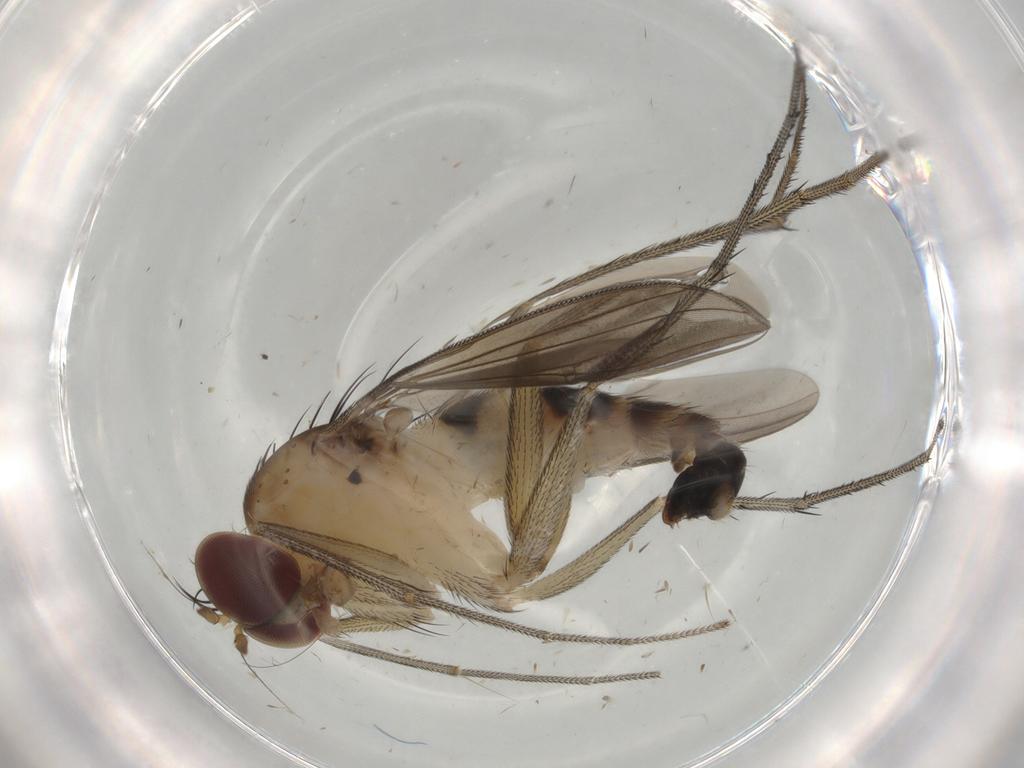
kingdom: Animalia
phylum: Arthropoda
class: Insecta
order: Diptera
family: Dolichopodidae
